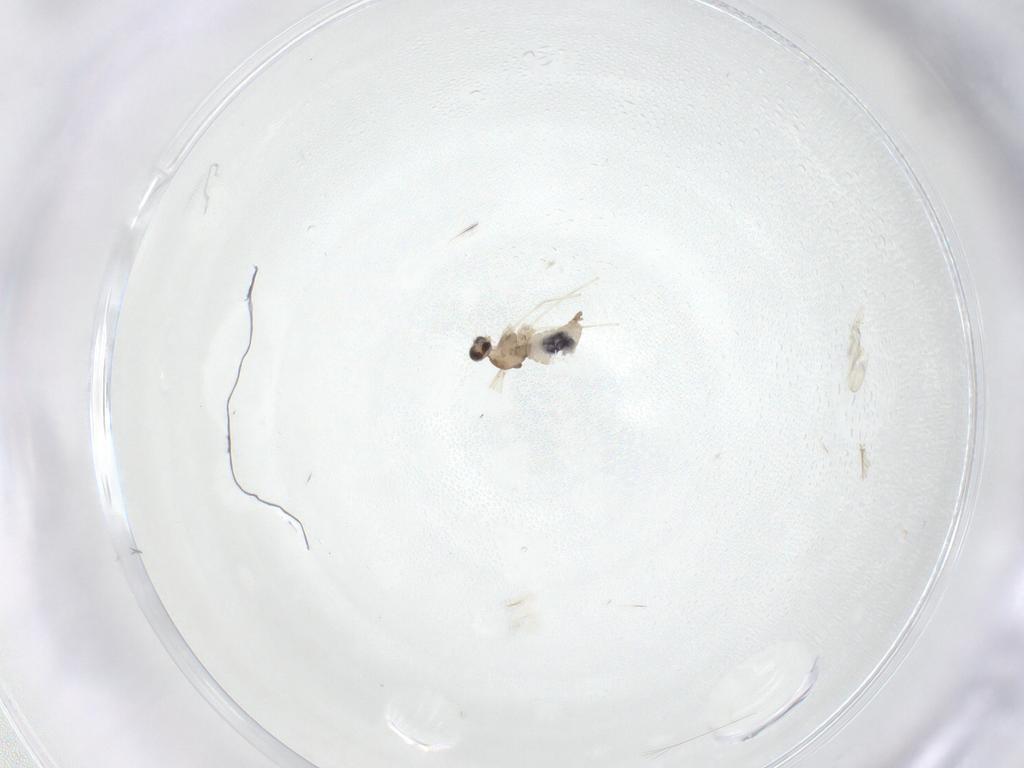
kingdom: Animalia
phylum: Arthropoda
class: Insecta
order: Diptera
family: Cecidomyiidae
